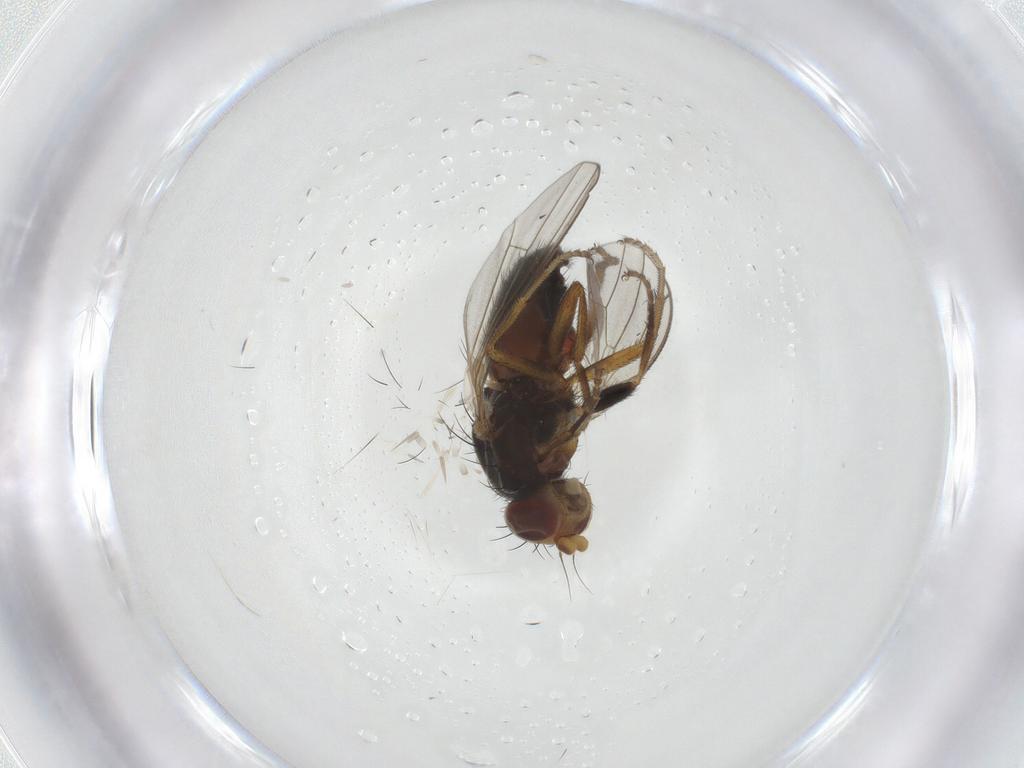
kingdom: Animalia
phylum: Arthropoda
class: Insecta
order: Diptera
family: Heleomyzidae
